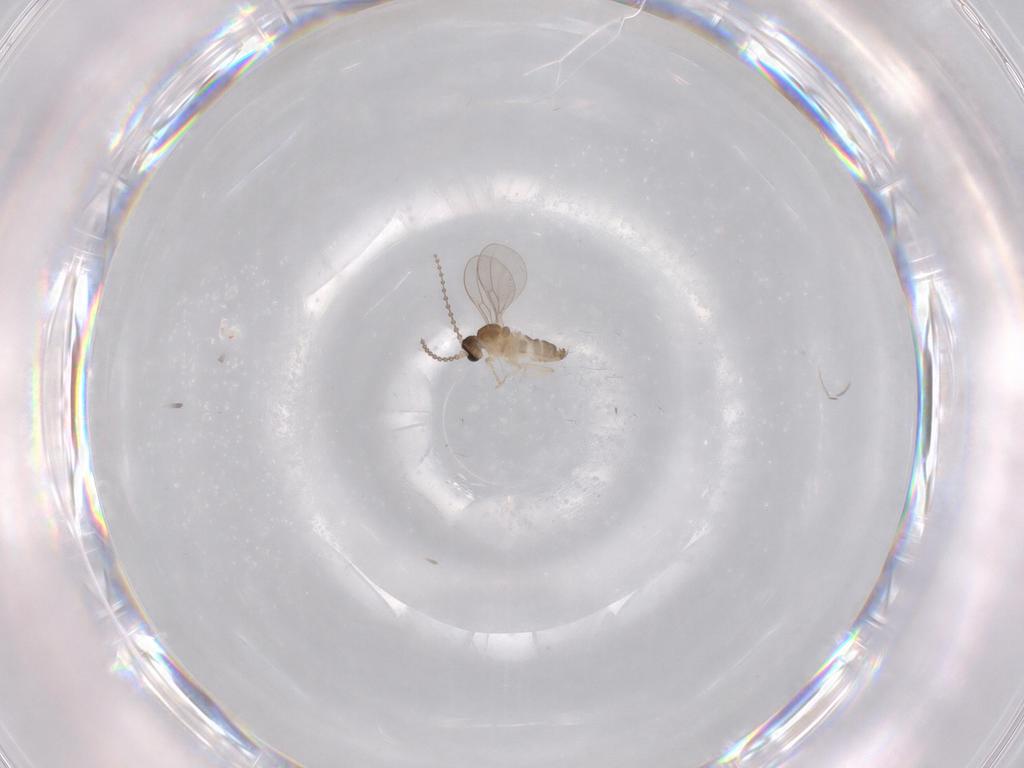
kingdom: Animalia
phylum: Arthropoda
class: Insecta
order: Diptera
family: Cecidomyiidae
